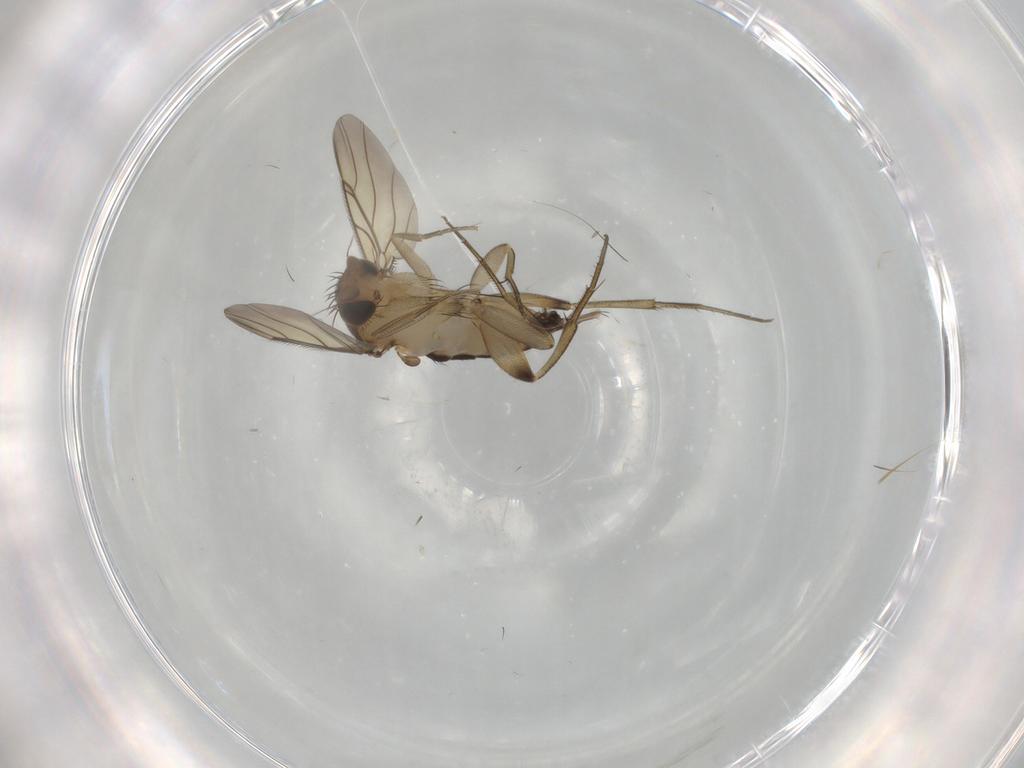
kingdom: Animalia
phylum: Arthropoda
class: Insecta
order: Diptera
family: Phoridae
